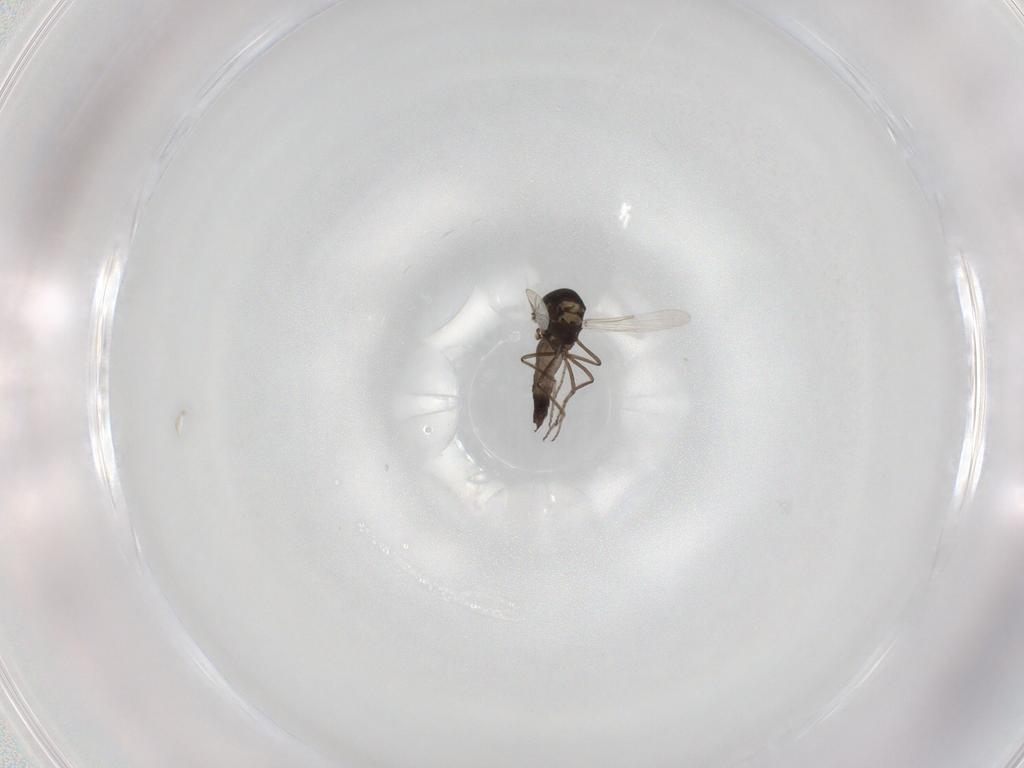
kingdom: Animalia
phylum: Arthropoda
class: Insecta
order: Diptera
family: Ceratopogonidae
